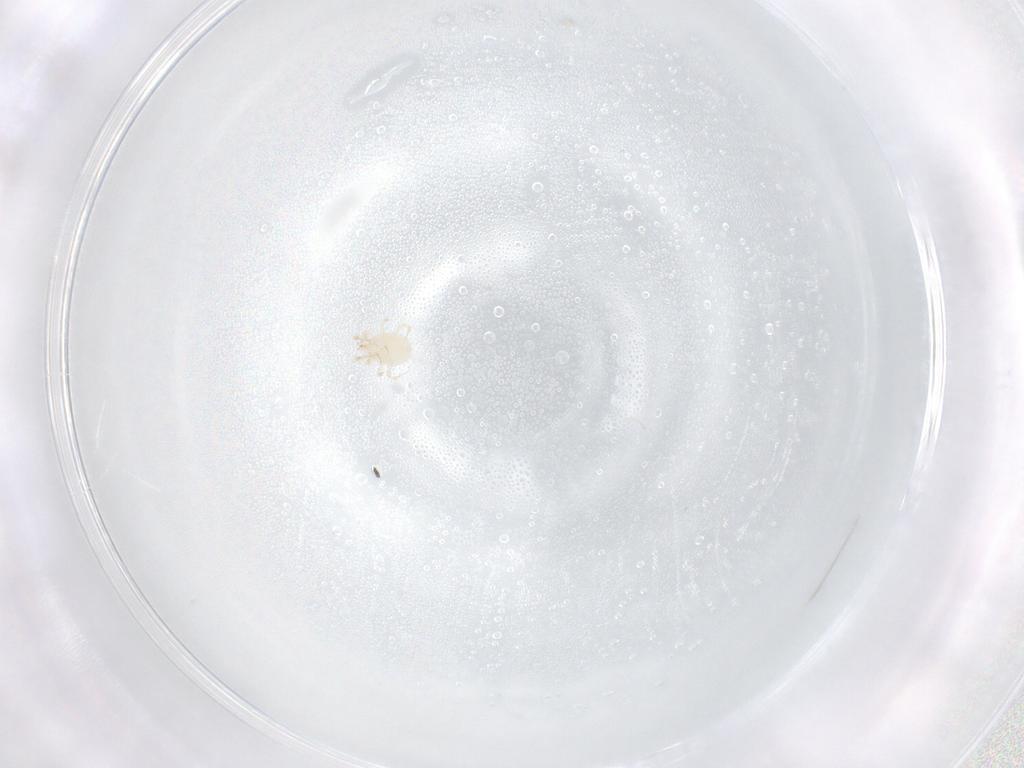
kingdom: Animalia
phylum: Arthropoda
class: Arachnida
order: Mesostigmata
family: Phytoseiidae
